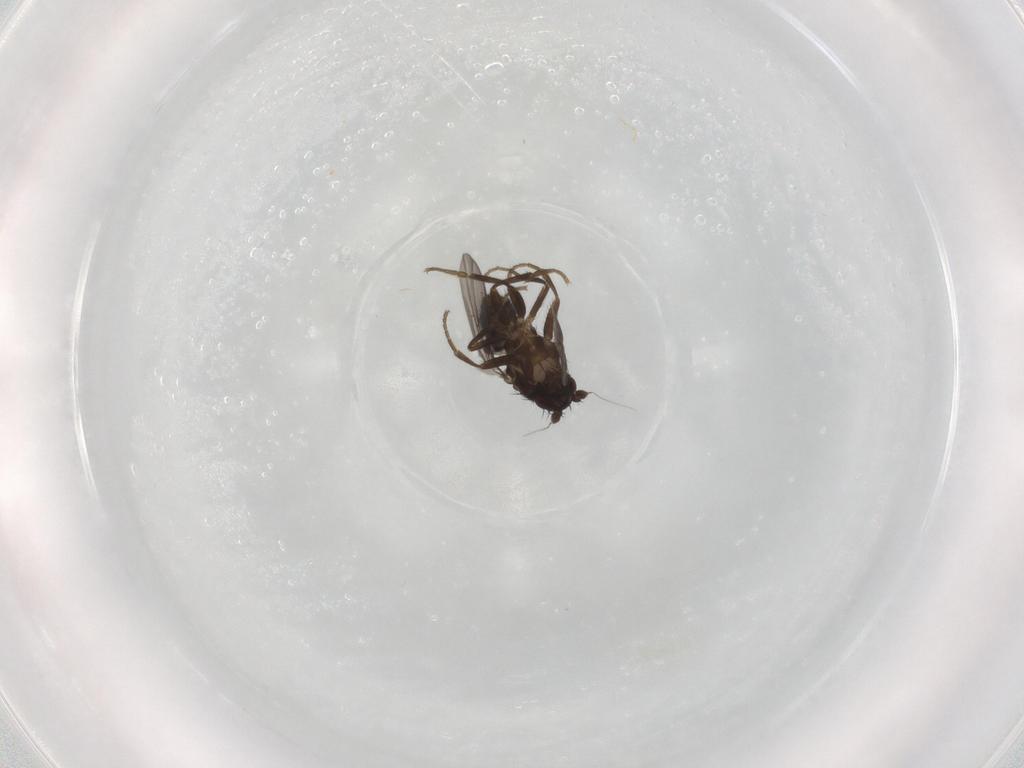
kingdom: Animalia
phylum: Arthropoda
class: Insecta
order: Diptera
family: Sphaeroceridae
